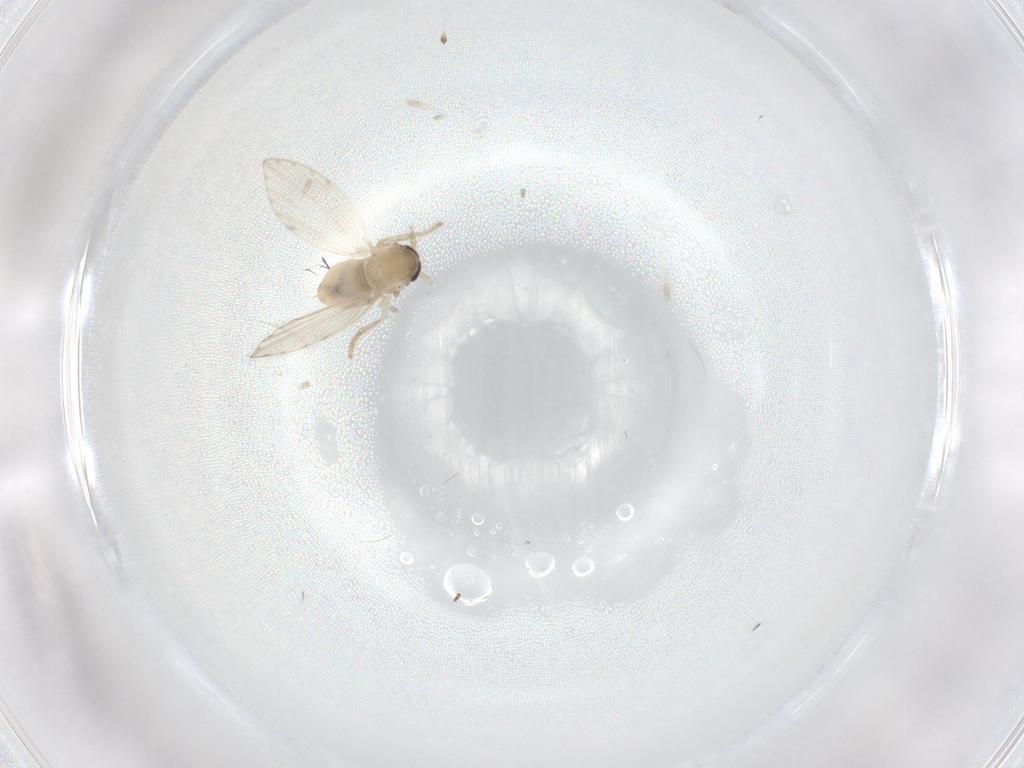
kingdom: Animalia
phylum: Arthropoda
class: Insecta
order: Diptera
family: Psychodidae
